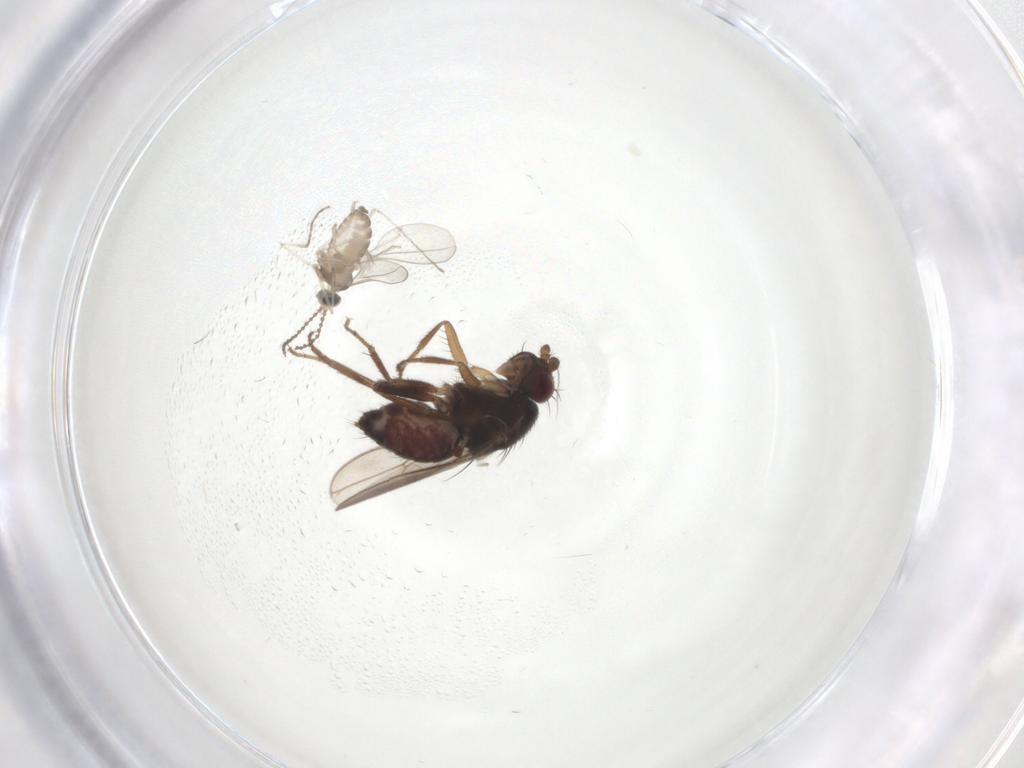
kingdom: Animalia
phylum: Arthropoda
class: Insecta
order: Diptera
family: Sphaeroceridae
